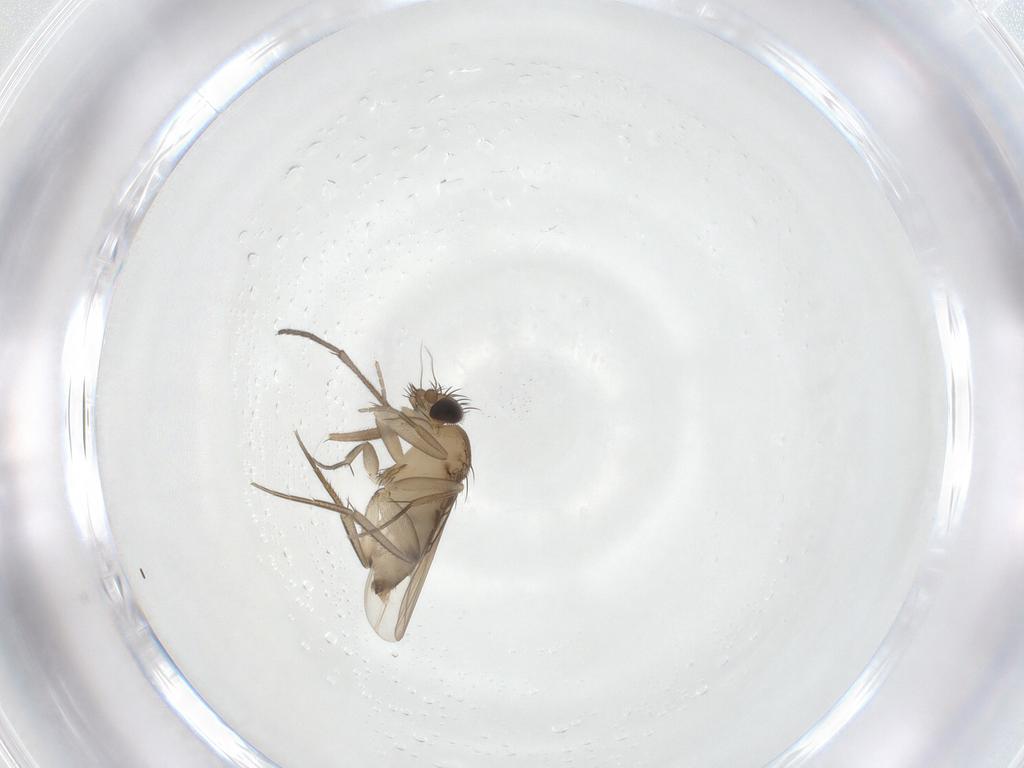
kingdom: Animalia
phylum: Arthropoda
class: Insecta
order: Diptera
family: Sciaridae
